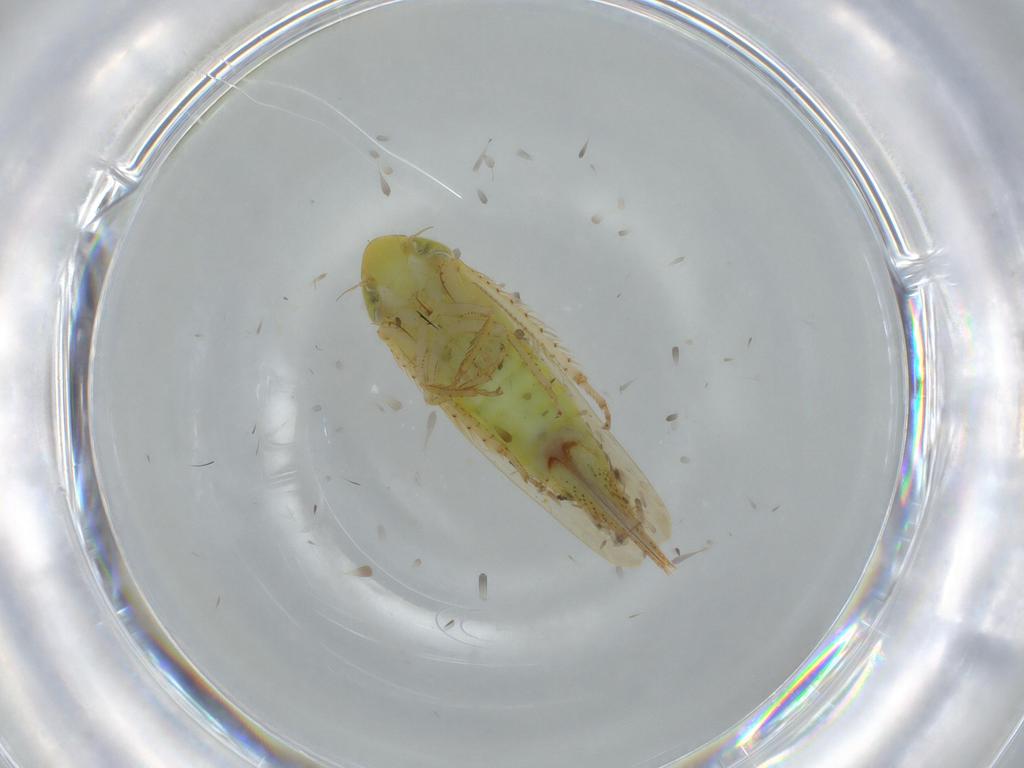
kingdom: Animalia
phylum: Arthropoda
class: Insecta
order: Hemiptera
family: Cicadellidae
